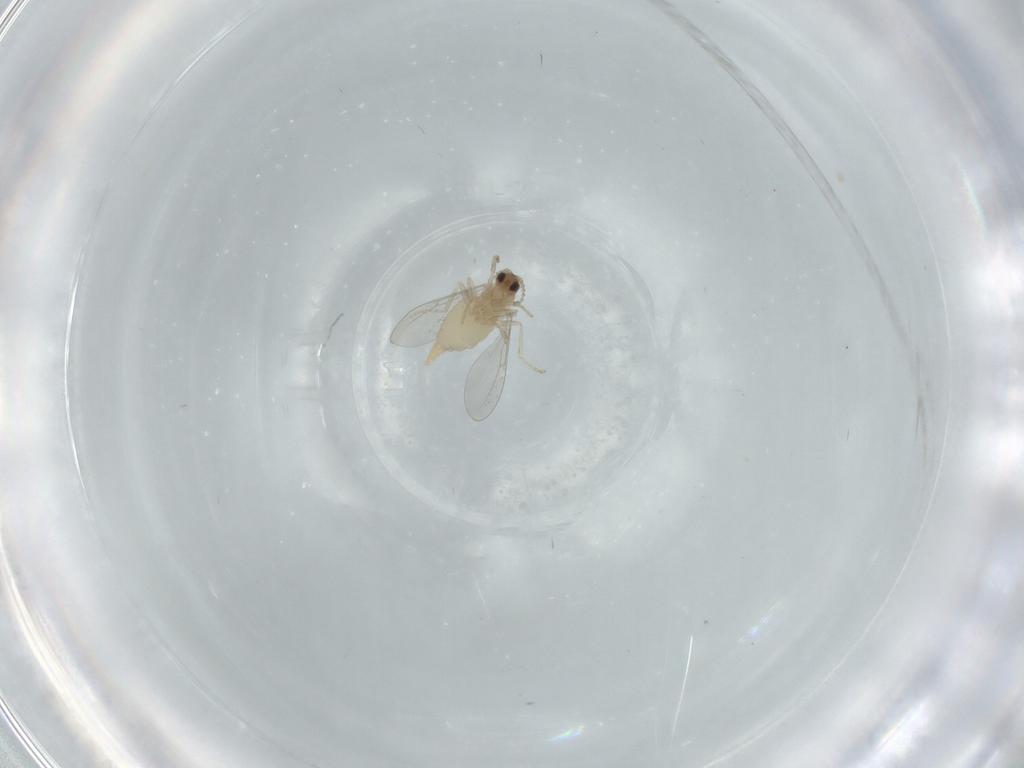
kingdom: Animalia
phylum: Arthropoda
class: Insecta
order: Diptera
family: Cecidomyiidae
